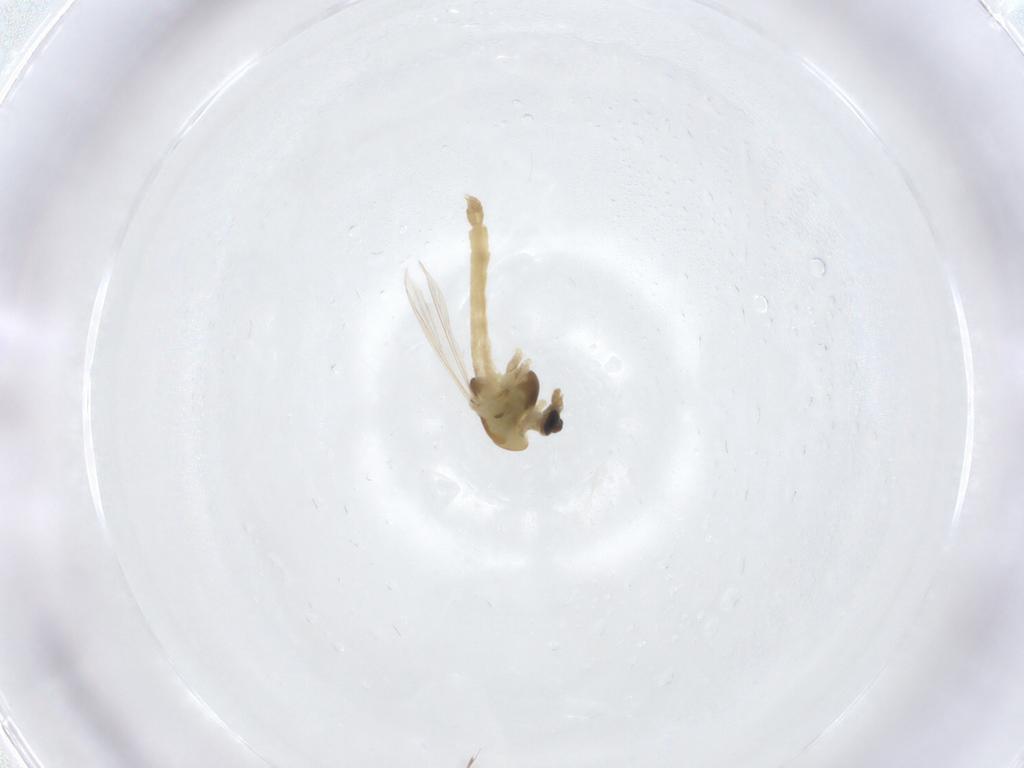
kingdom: Animalia
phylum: Arthropoda
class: Insecta
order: Diptera
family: Chironomidae
